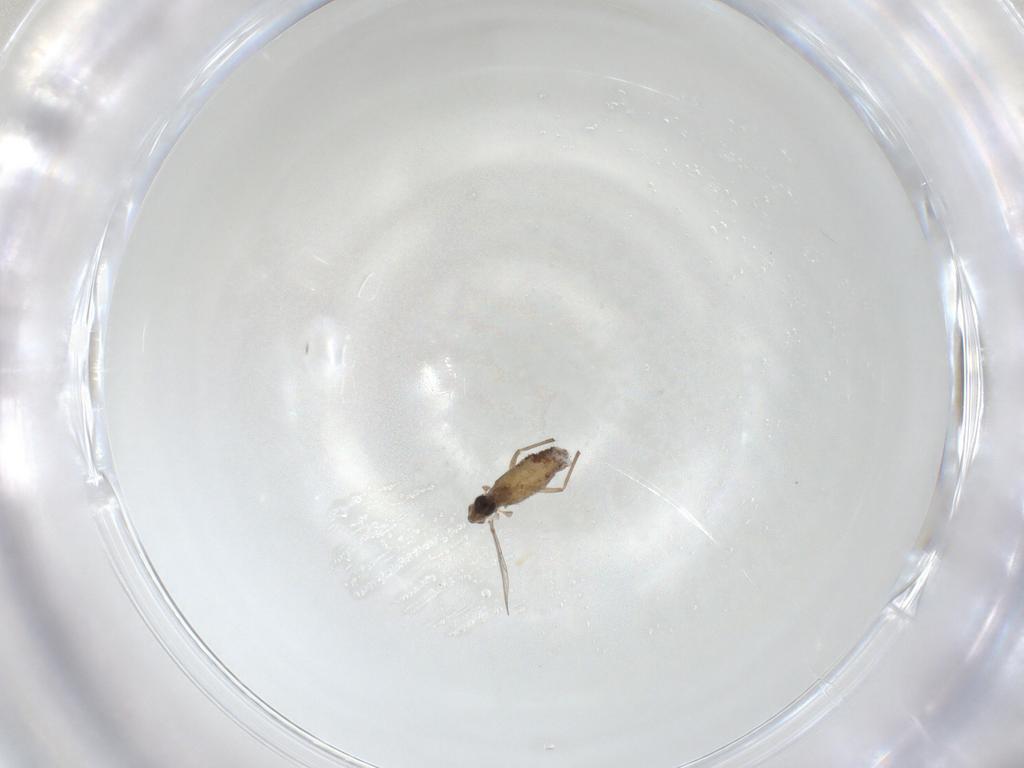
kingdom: Animalia
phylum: Arthropoda
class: Insecta
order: Diptera
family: Chironomidae
